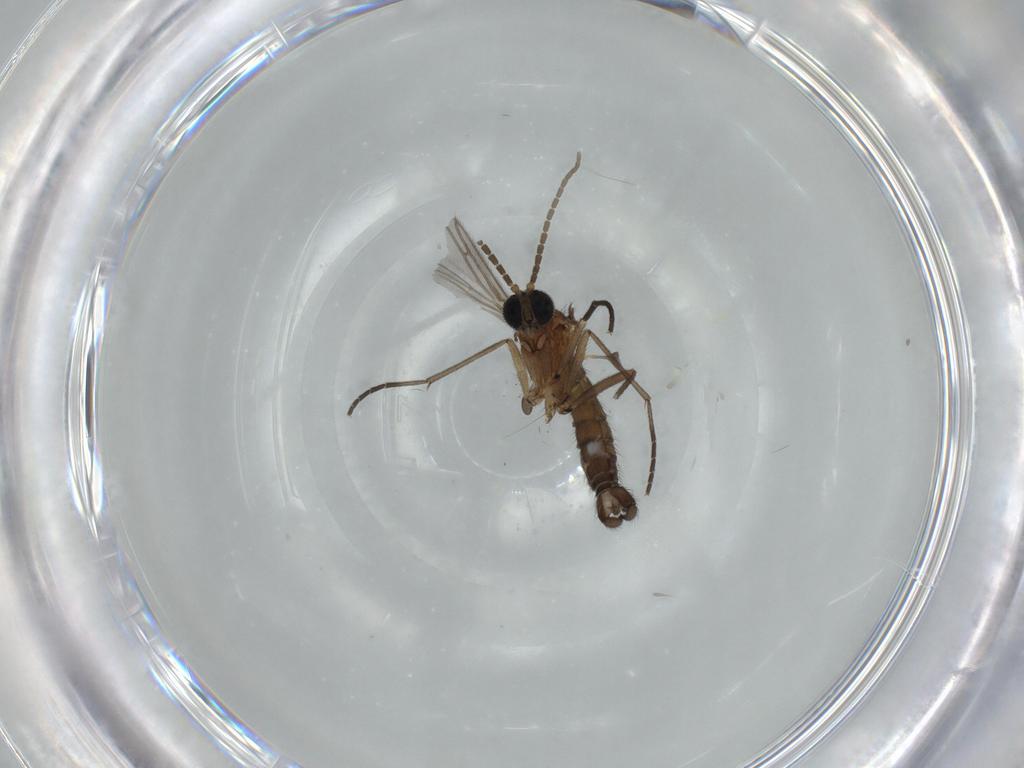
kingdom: Animalia
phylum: Arthropoda
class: Insecta
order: Diptera
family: Sciaridae
